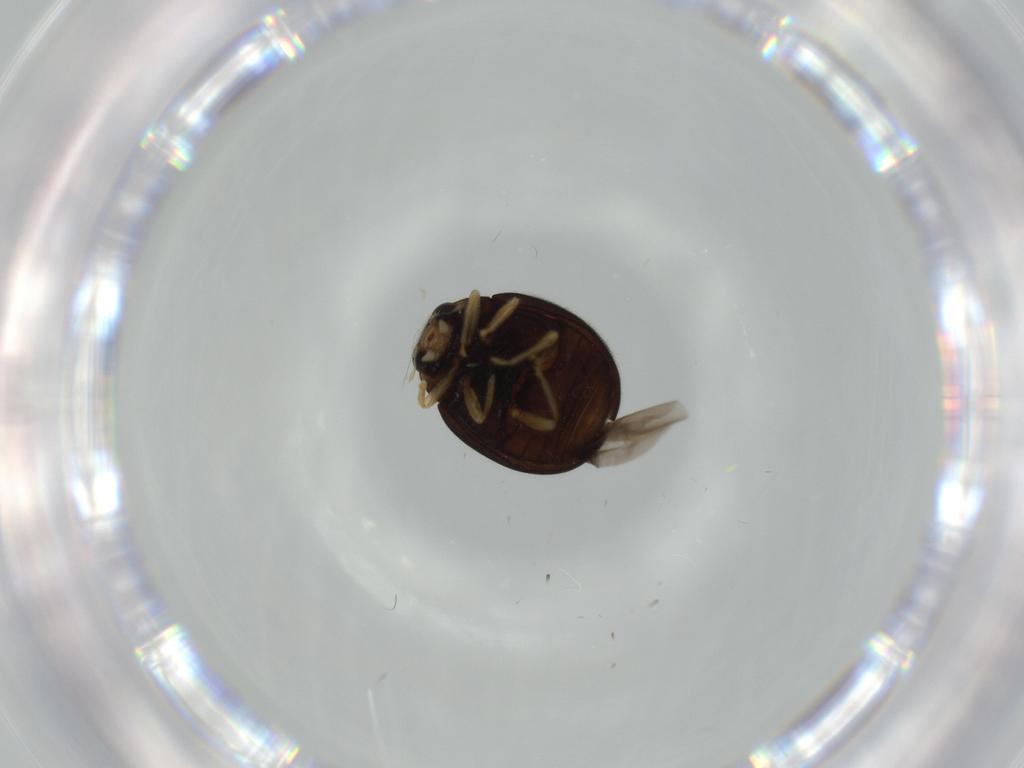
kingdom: Animalia
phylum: Arthropoda
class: Insecta
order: Coleoptera
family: Coccinellidae
